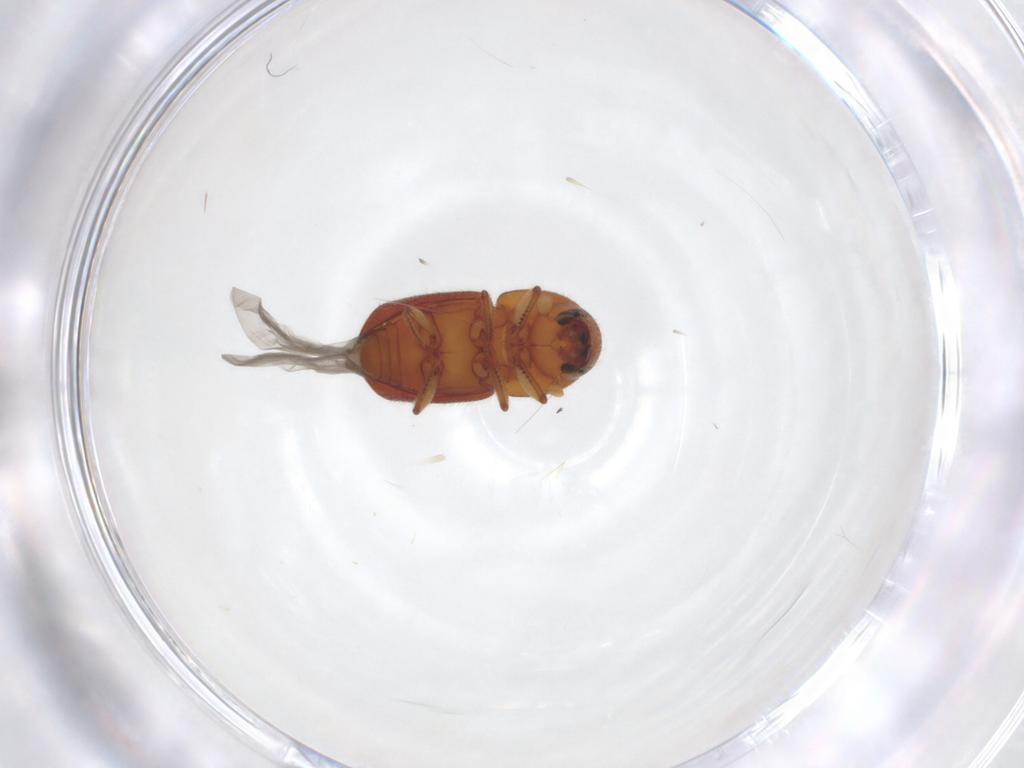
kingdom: Animalia
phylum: Arthropoda
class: Insecta
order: Coleoptera
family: Curculionidae
